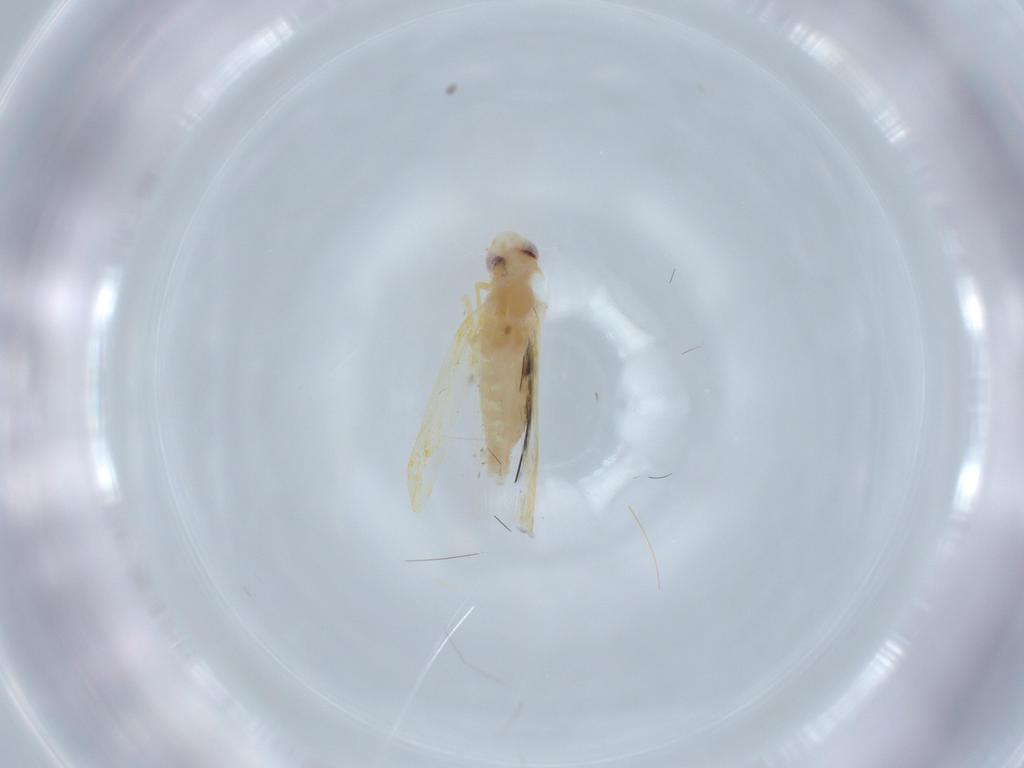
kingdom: Animalia
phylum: Arthropoda
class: Insecta
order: Hemiptera
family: Cicadellidae
